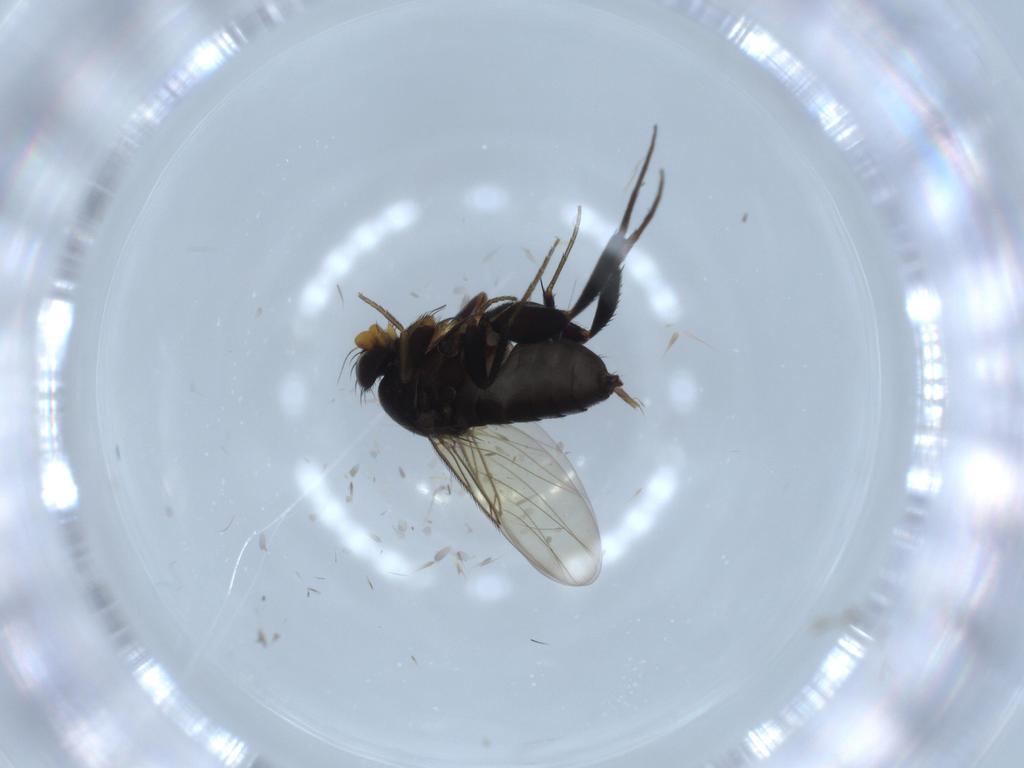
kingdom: Animalia
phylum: Arthropoda
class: Insecta
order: Diptera
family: Phoridae
